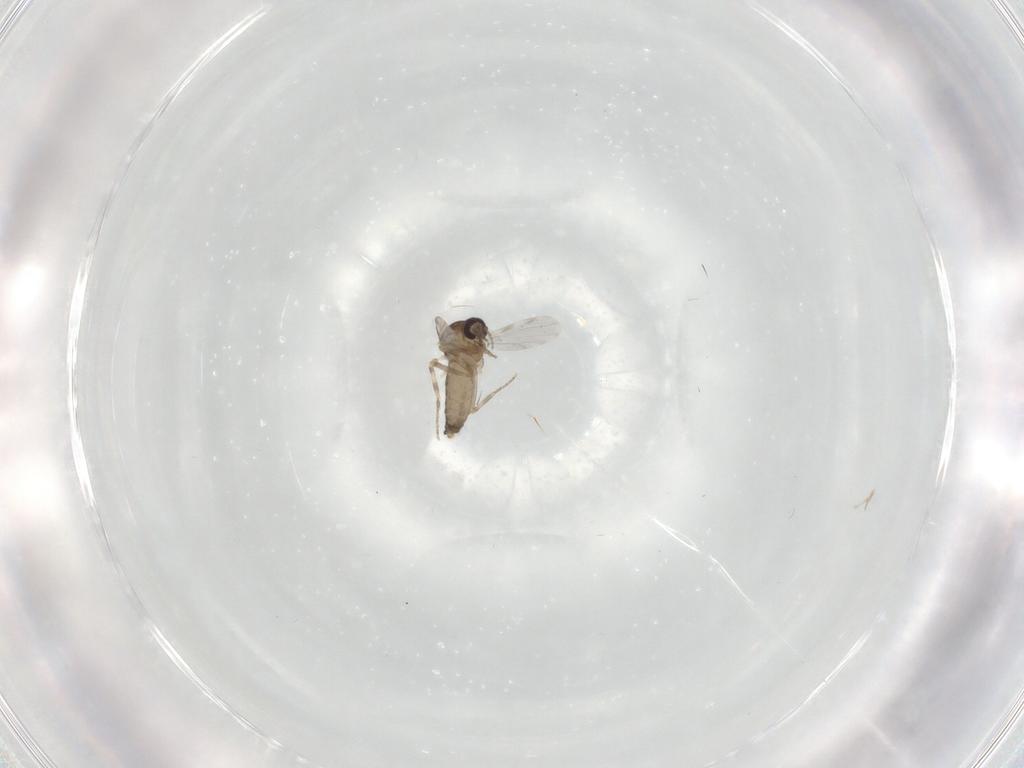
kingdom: Animalia
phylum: Arthropoda
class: Insecta
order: Diptera
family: Ceratopogonidae
